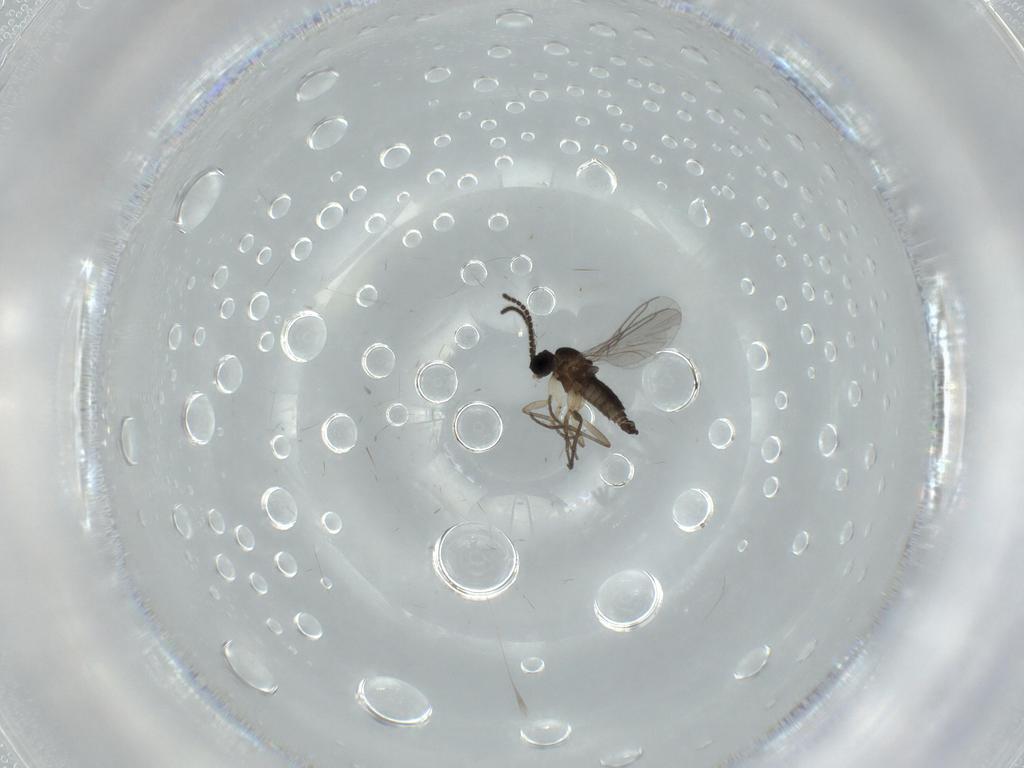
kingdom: Animalia
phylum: Arthropoda
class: Insecta
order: Diptera
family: Sciaridae
